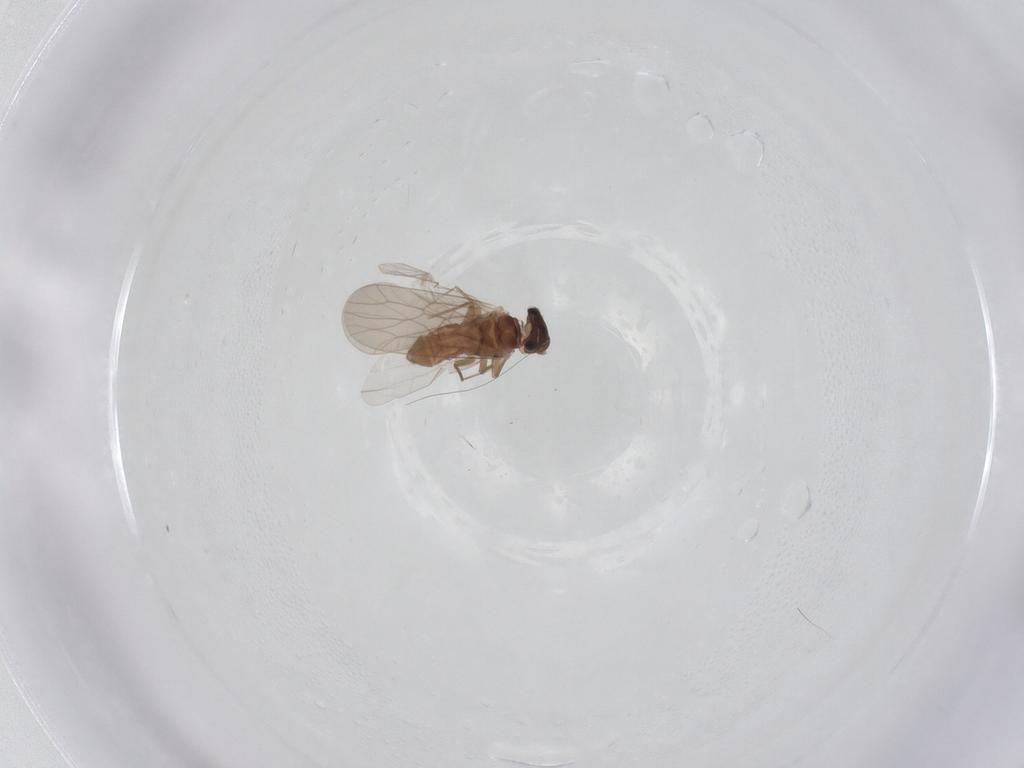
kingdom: Animalia
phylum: Arthropoda
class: Insecta
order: Psocodea
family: Lepidopsocidae
